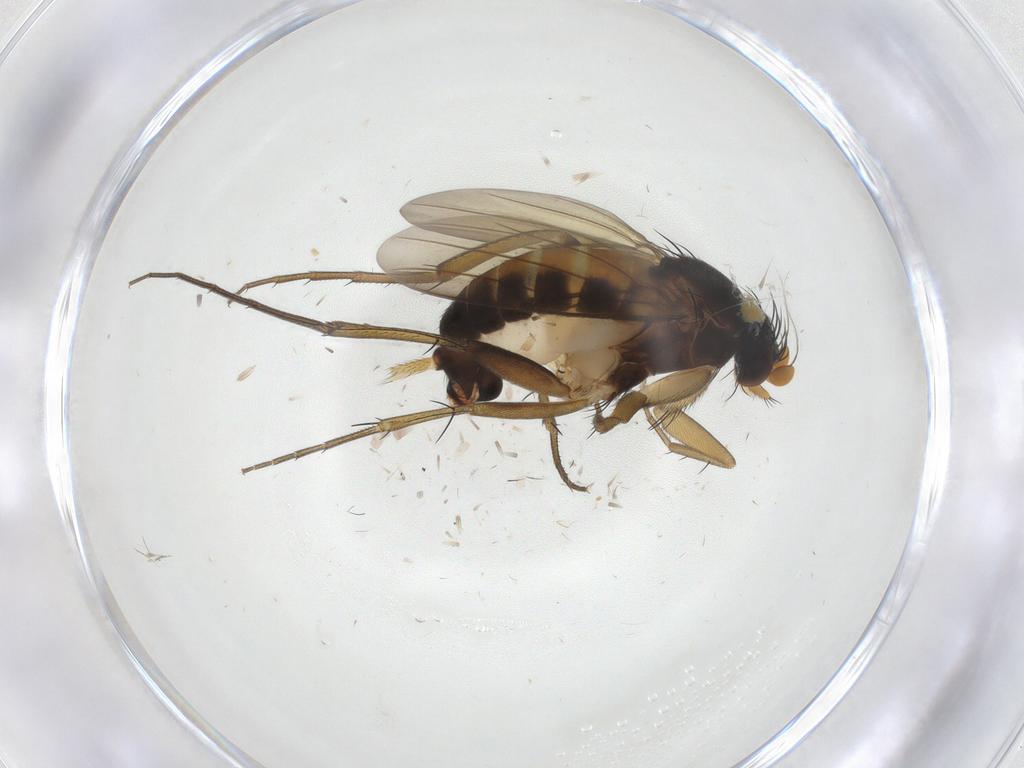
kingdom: Animalia
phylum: Arthropoda
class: Insecta
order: Diptera
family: Phoridae
